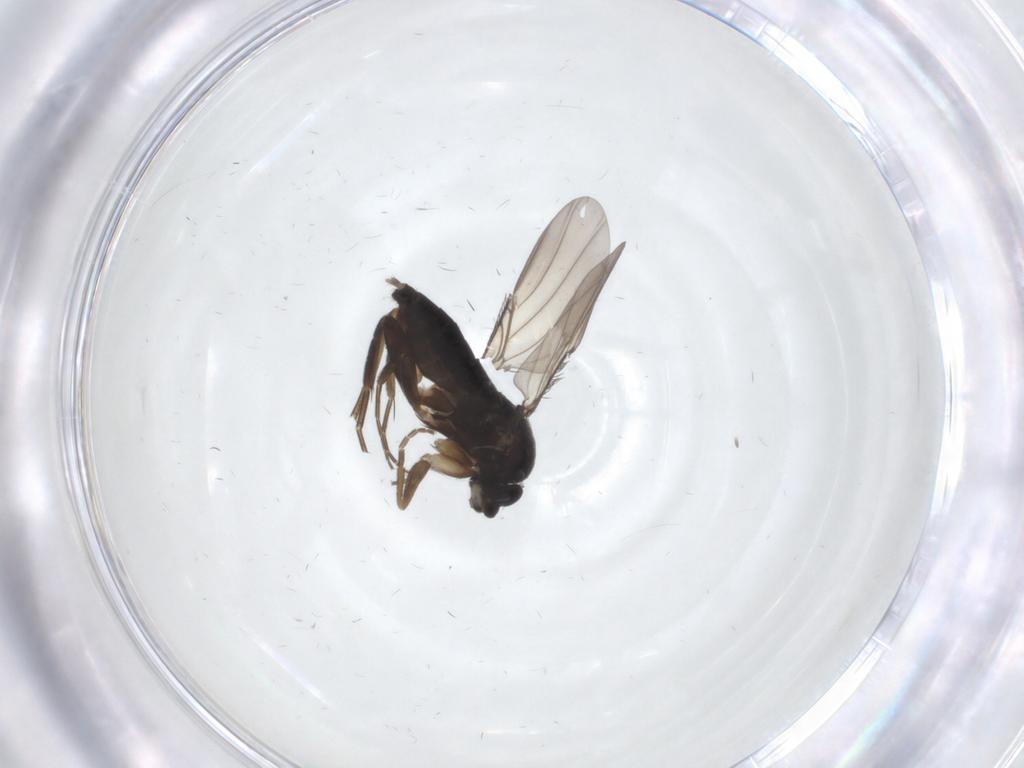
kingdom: Animalia
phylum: Arthropoda
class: Insecta
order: Diptera
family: Phoridae
